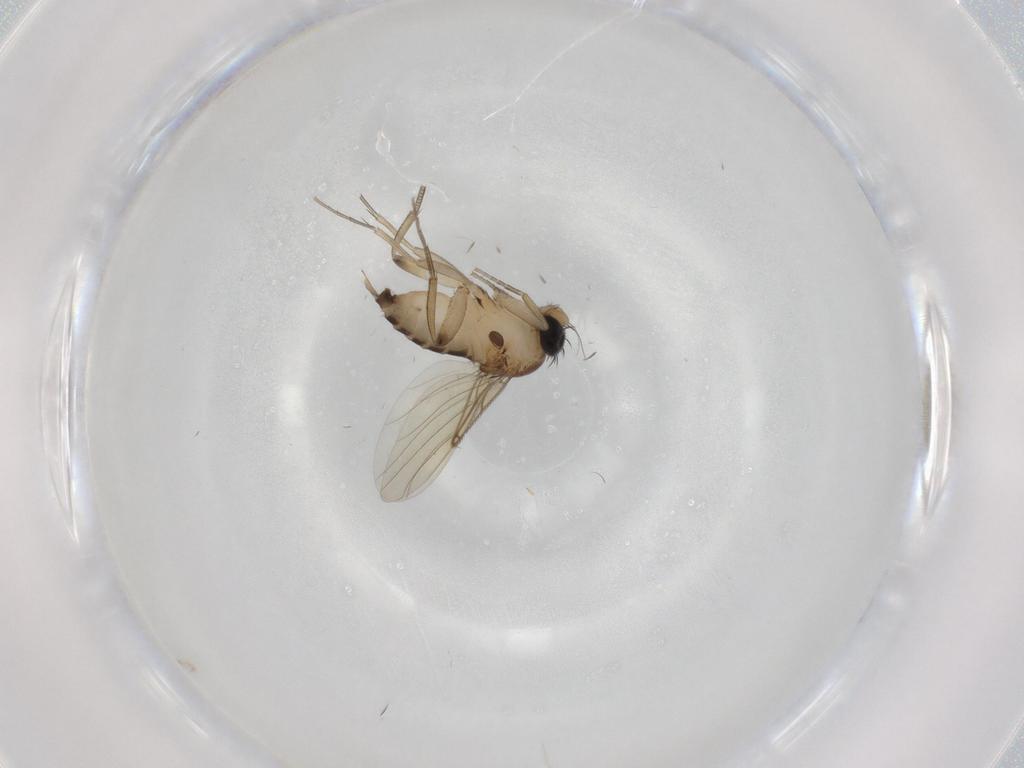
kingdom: Animalia
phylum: Arthropoda
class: Insecta
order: Diptera
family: Phoridae
